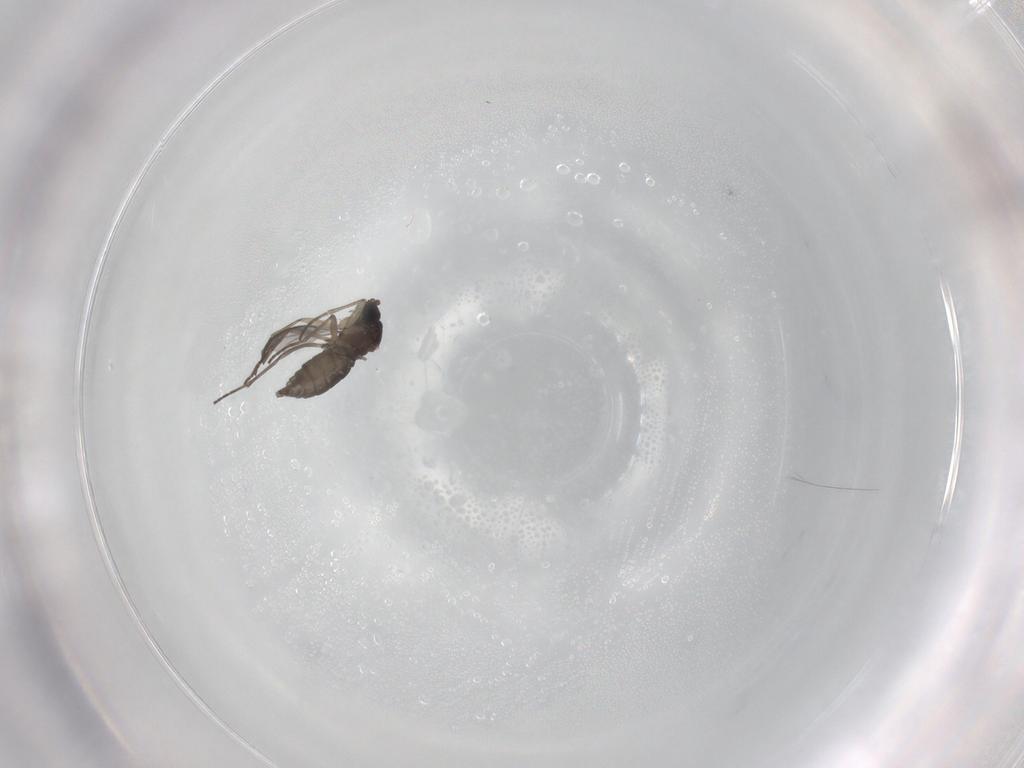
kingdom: Animalia
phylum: Arthropoda
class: Insecta
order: Diptera
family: Sciaridae
